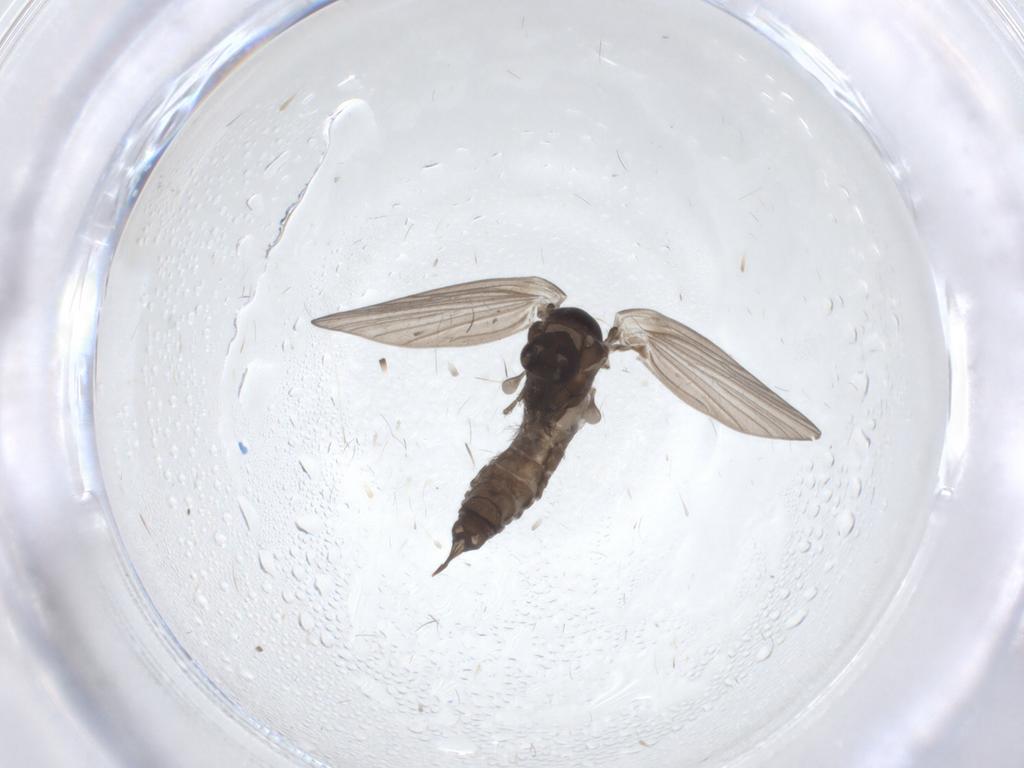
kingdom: Animalia
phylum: Arthropoda
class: Insecta
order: Diptera
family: Psychodidae
